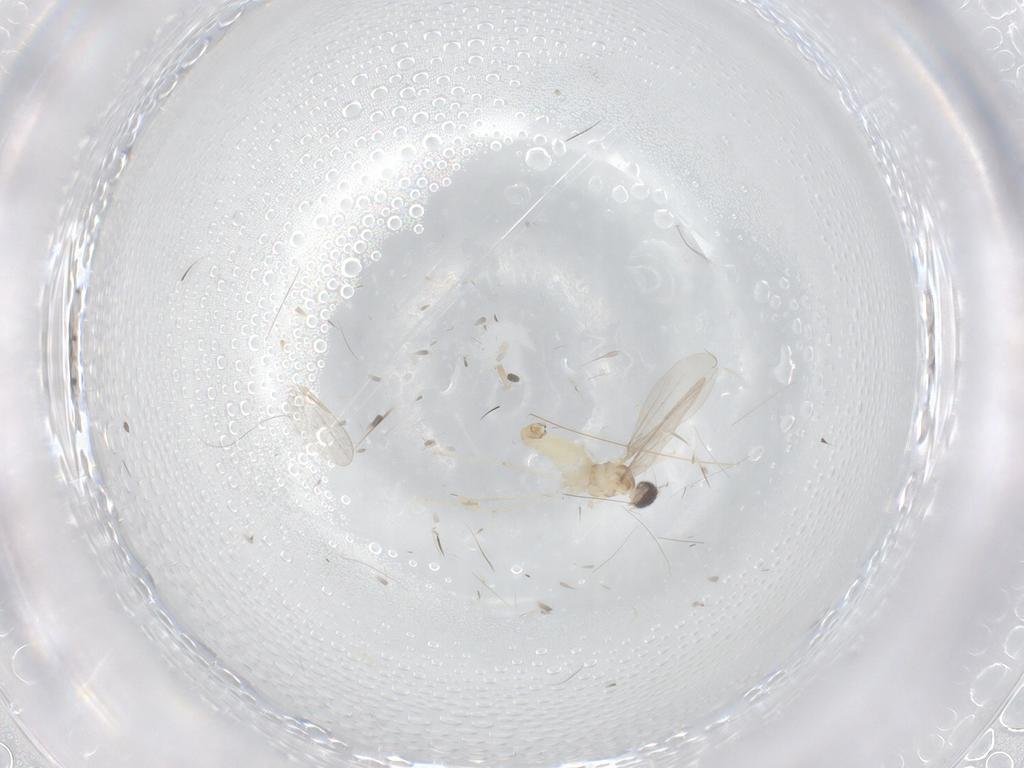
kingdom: Animalia
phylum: Arthropoda
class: Insecta
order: Diptera
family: Cecidomyiidae
